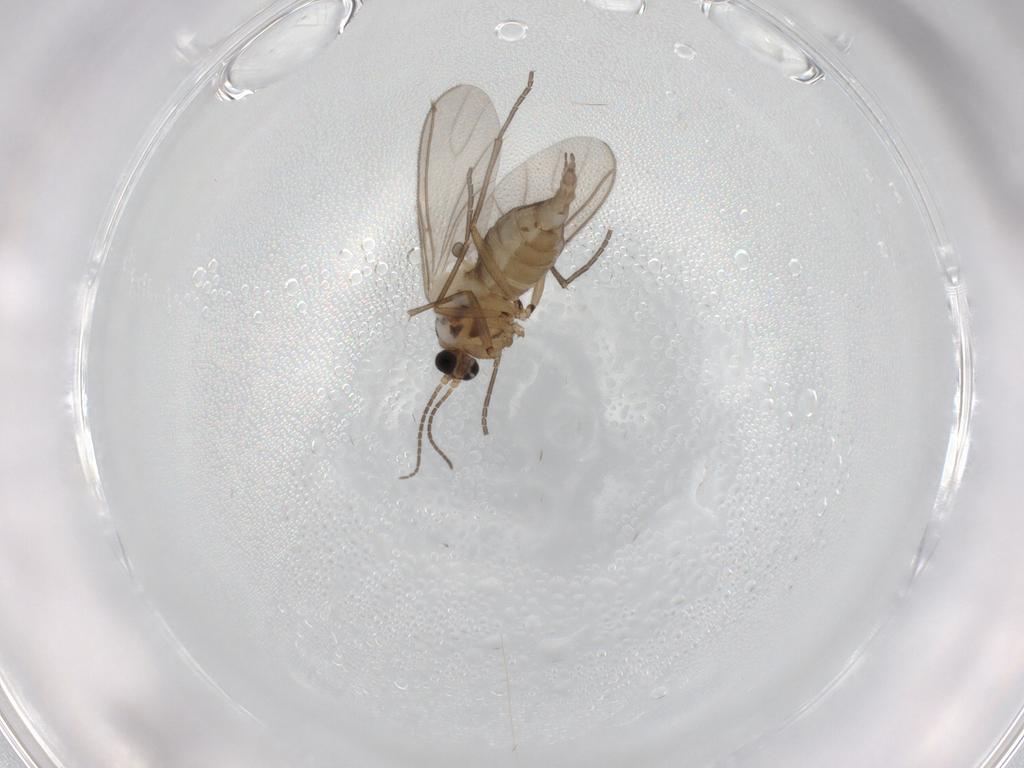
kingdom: Animalia
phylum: Arthropoda
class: Insecta
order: Diptera
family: Sciaridae
